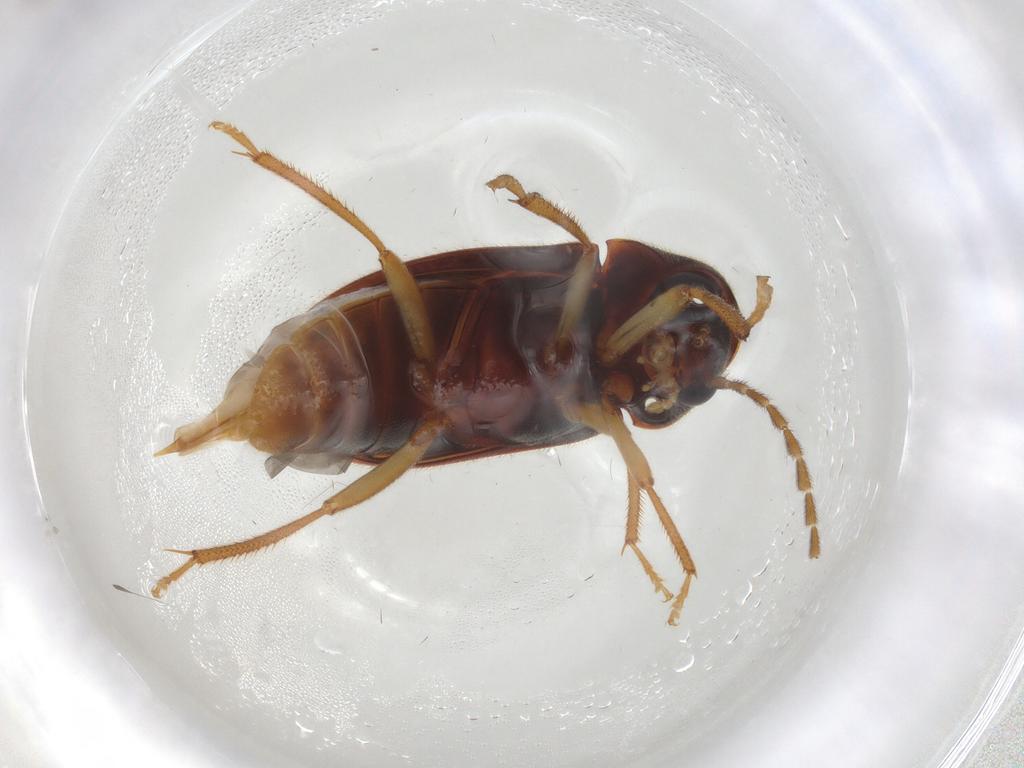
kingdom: Animalia
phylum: Arthropoda
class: Insecta
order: Coleoptera
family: Ptilodactylidae
